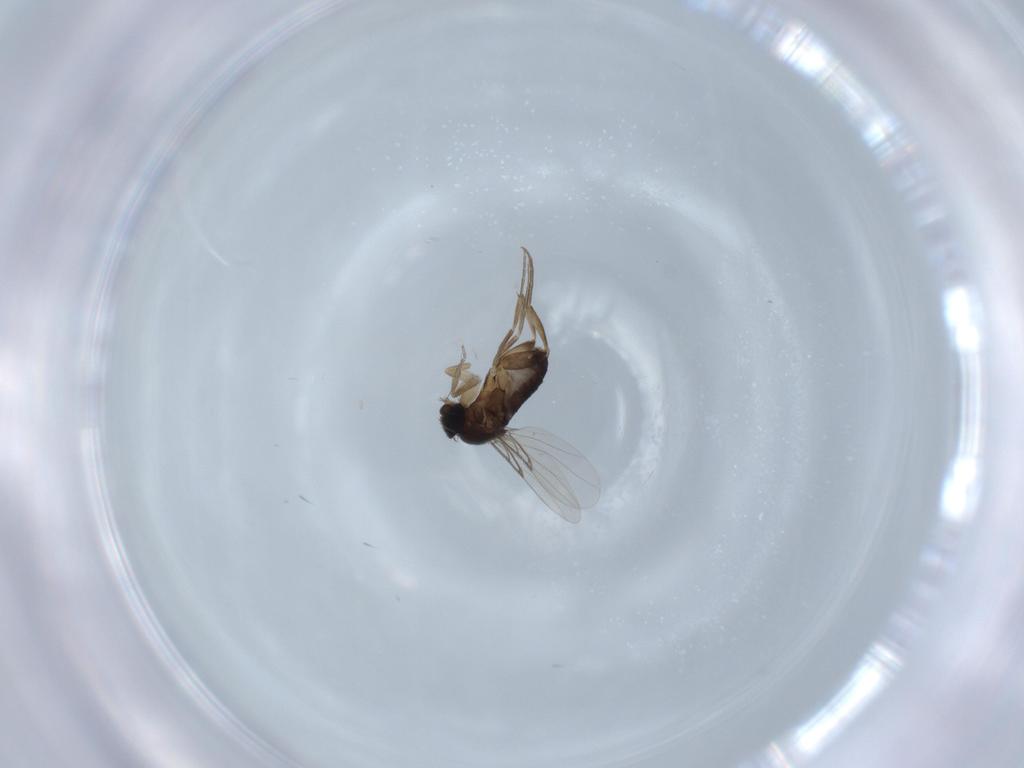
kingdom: Animalia
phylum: Arthropoda
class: Insecta
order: Diptera
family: Phoridae
